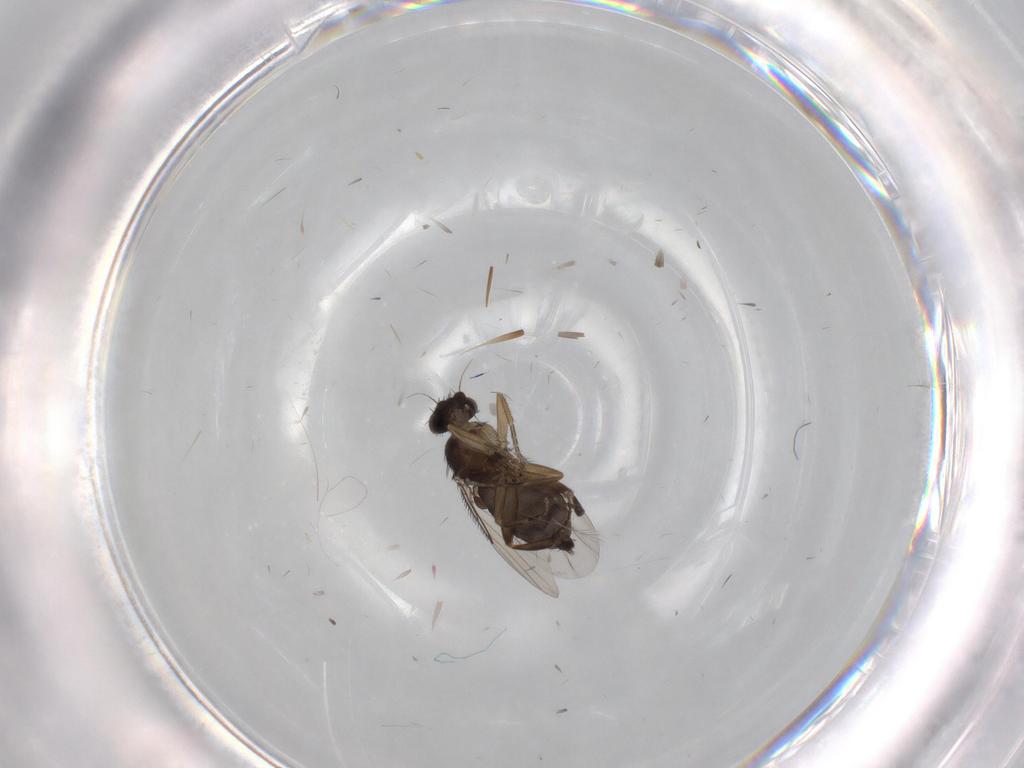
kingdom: Animalia
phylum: Arthropoda
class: Insecta
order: Diptera
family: Phoridae
